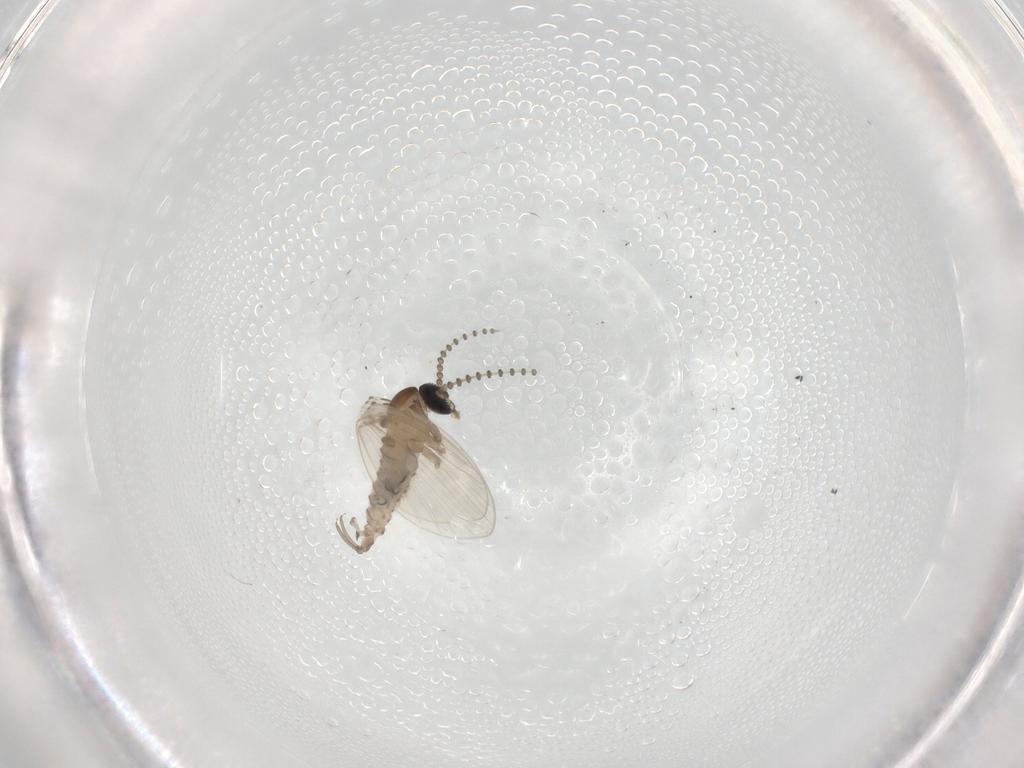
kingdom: Animalia
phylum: Arthropoda
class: Insecta
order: Diptera
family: Psychodidae
